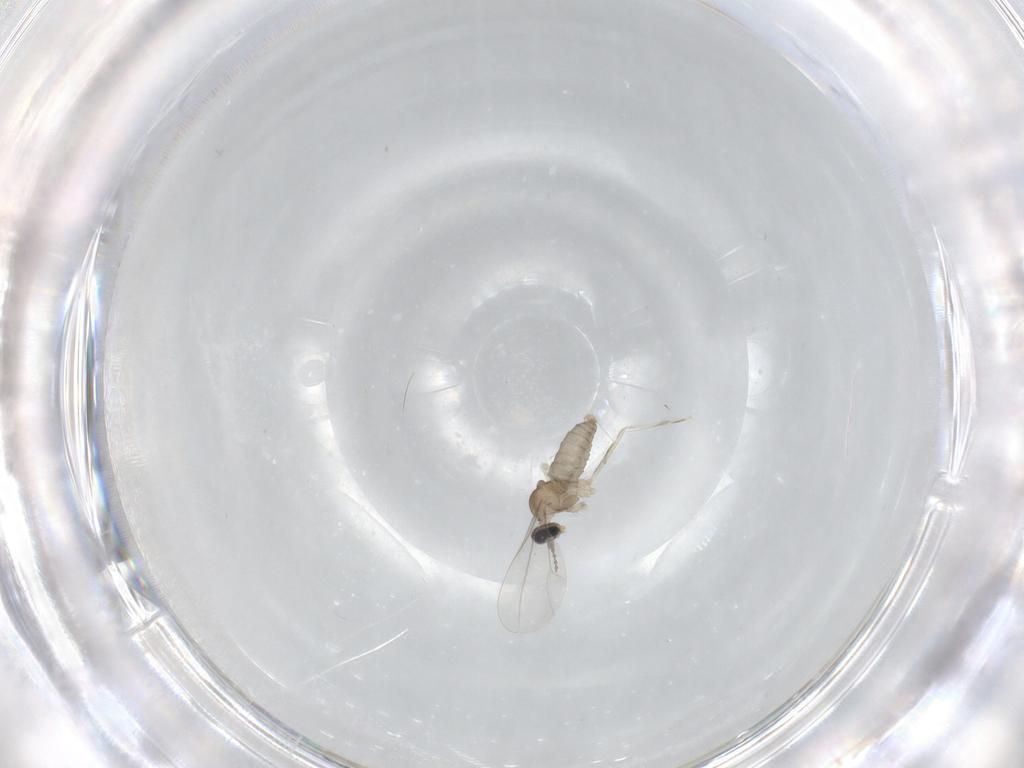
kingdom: Animalia
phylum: Arthropoda
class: Insecta
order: Diptera
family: Cecidomyiidae
